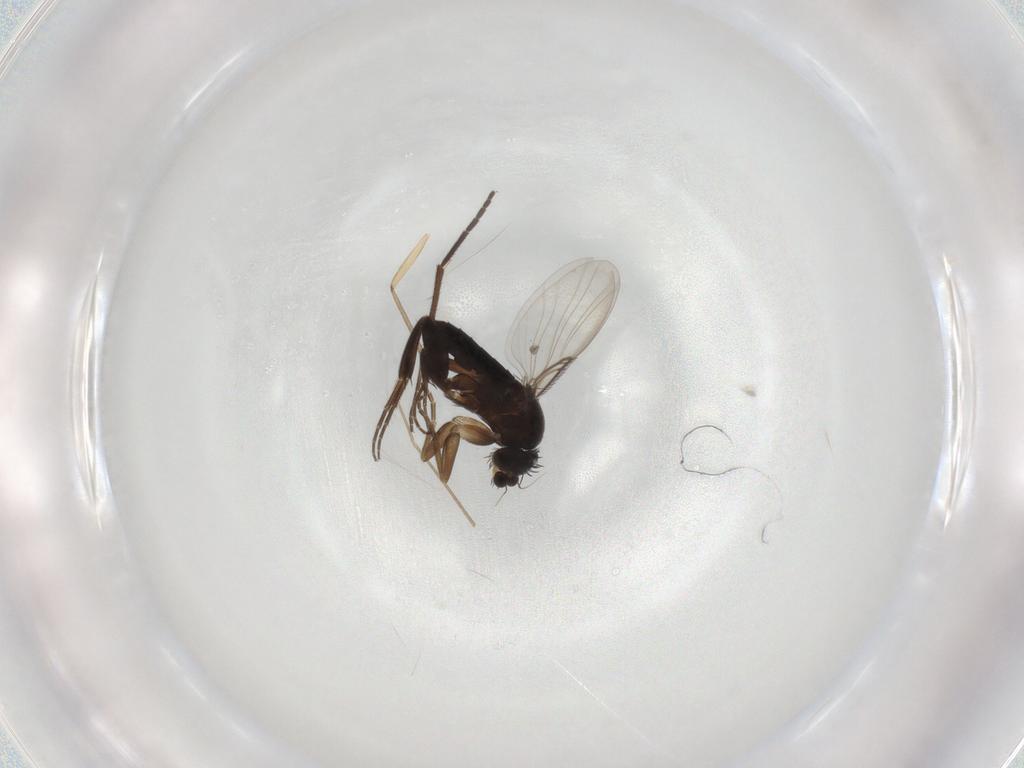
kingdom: Animalia
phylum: Arthropoda
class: Insecta
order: Diptera
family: Phoridae
